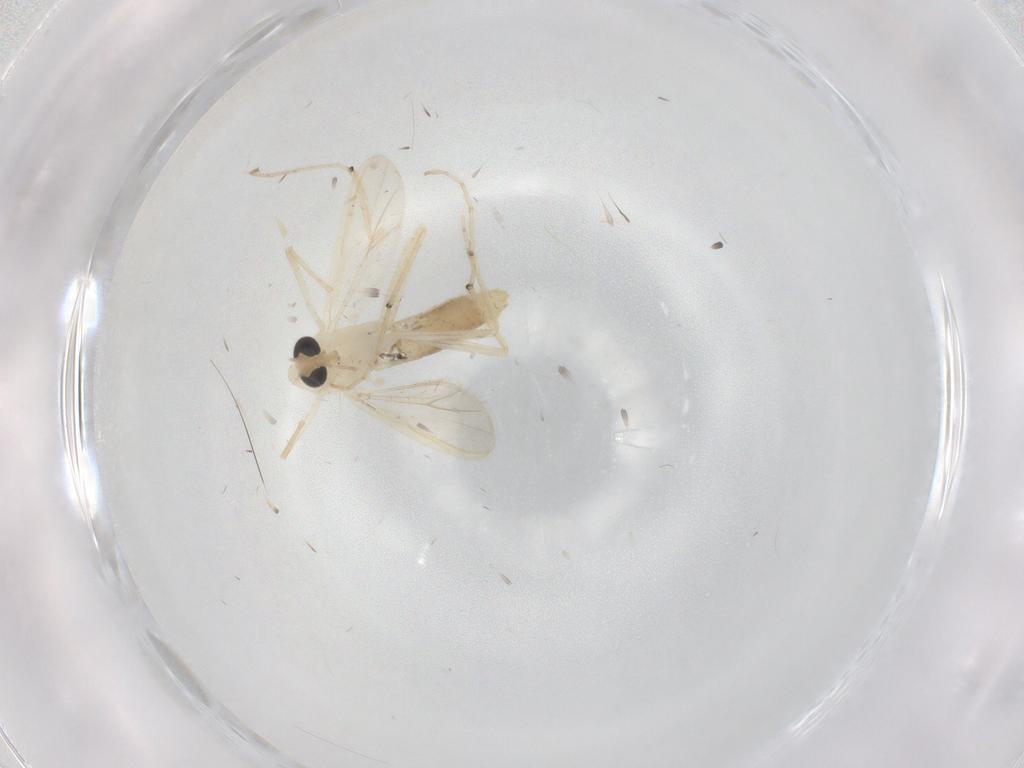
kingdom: Animalia
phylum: Arthropoda
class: Insecta
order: Diptera
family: Chironomidae
